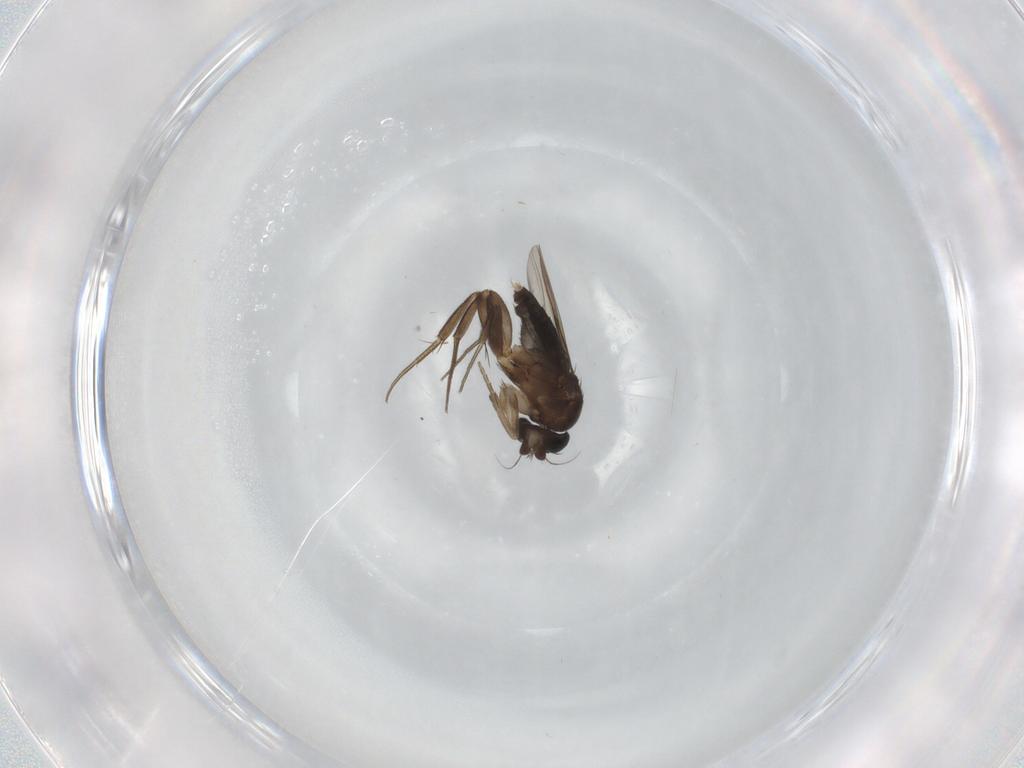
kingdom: Animalia
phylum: Arthropoda
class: Insecta
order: Diptera
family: Phoridae
